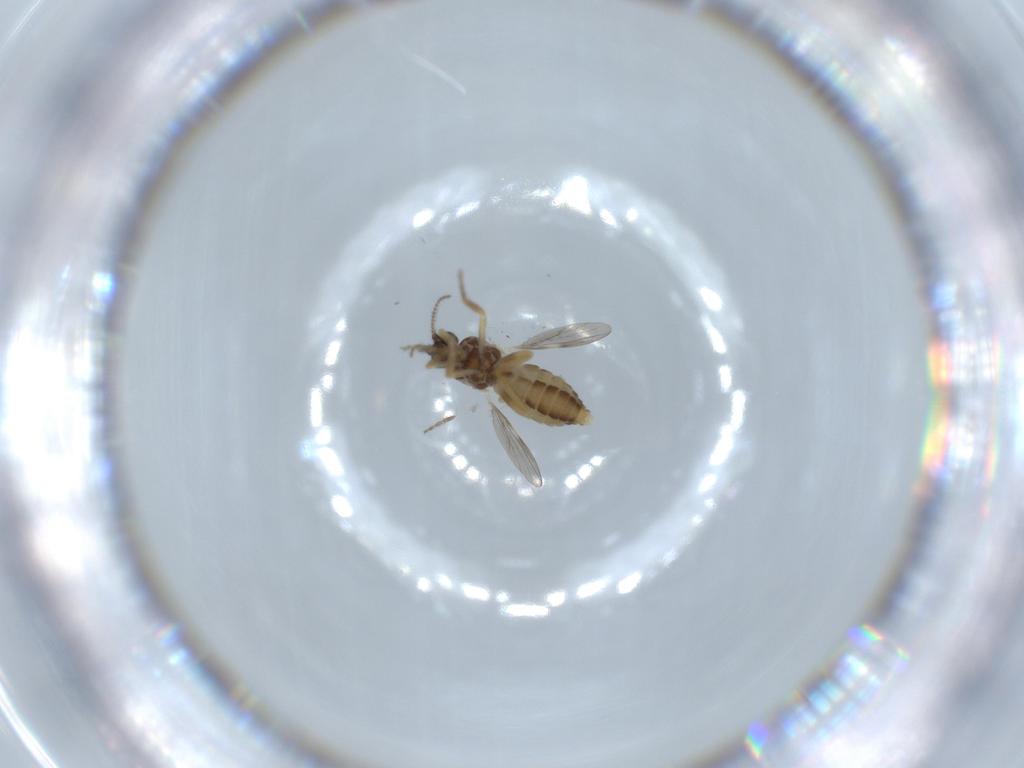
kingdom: Animalia
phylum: Arthropoda
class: Insecta
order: Diptera
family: Ceratopogonidae
